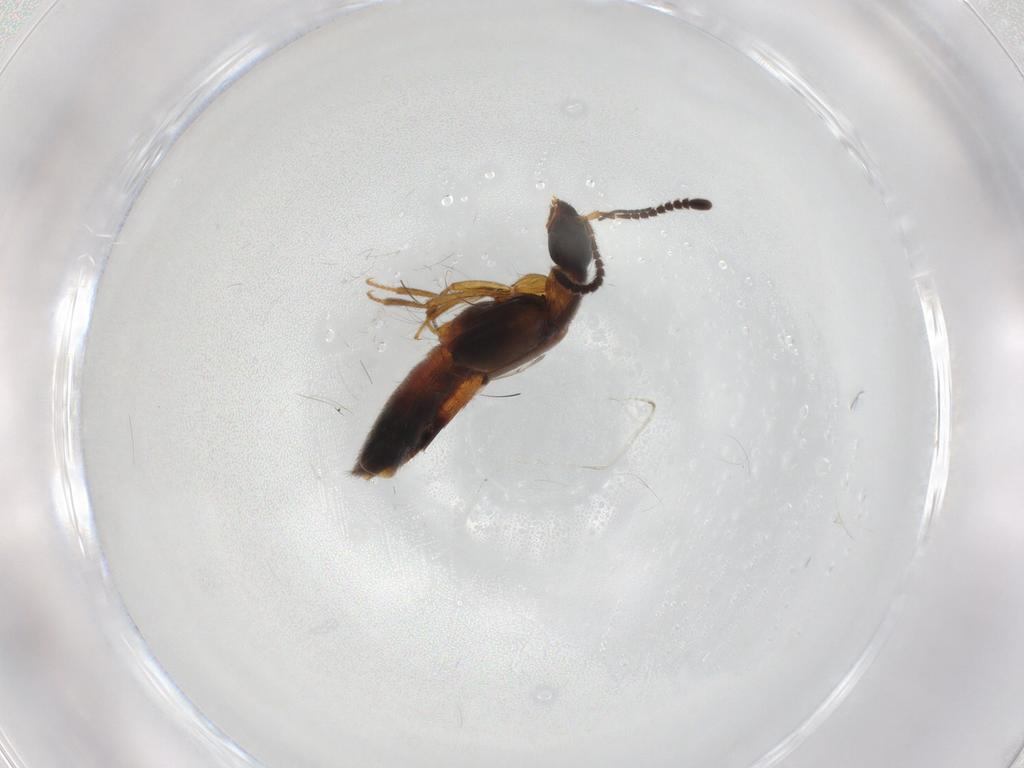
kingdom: Animalia
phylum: Arthropoda
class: Insecta
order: Coleoptera
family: Staphylinidae
